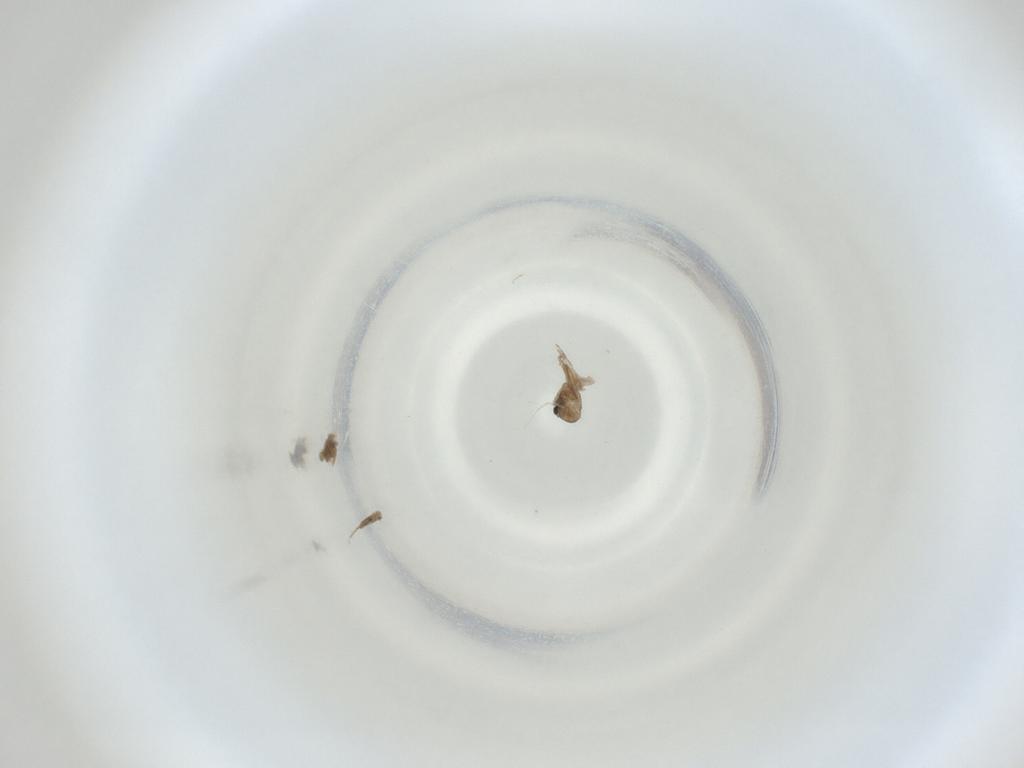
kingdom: Animalia
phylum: Arthropoda
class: Insecta
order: Diptera
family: Cecidomyiidae
